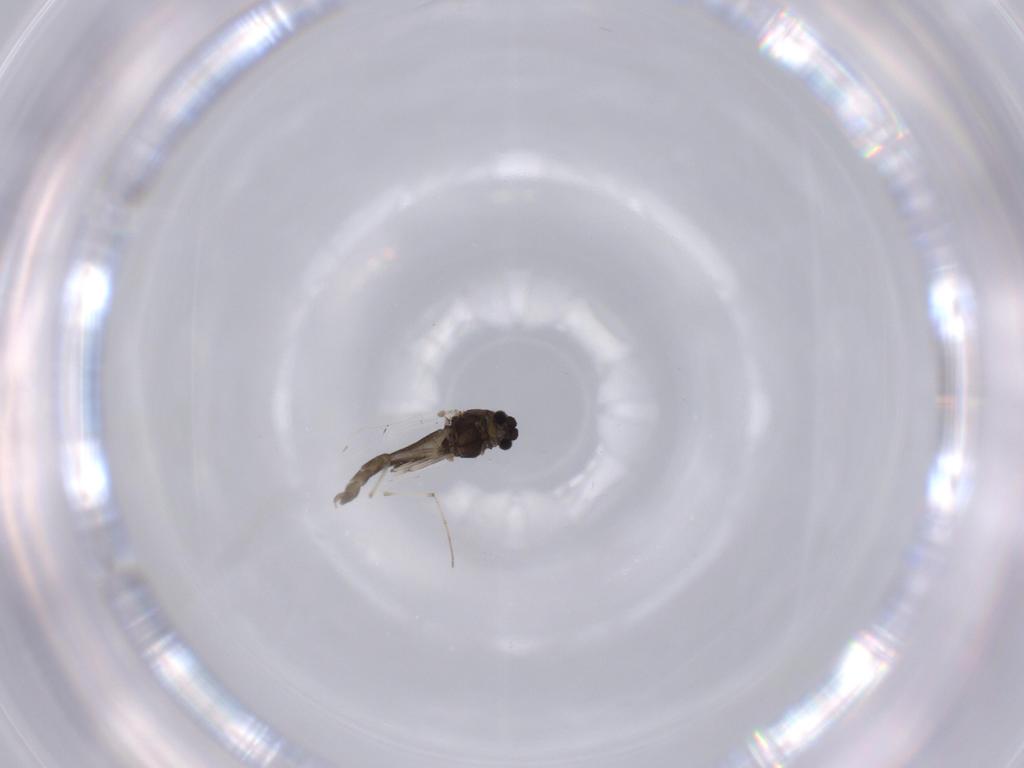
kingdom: Animalia
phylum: Arthropoda
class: Insecta
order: Diptera
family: Chironomidae
